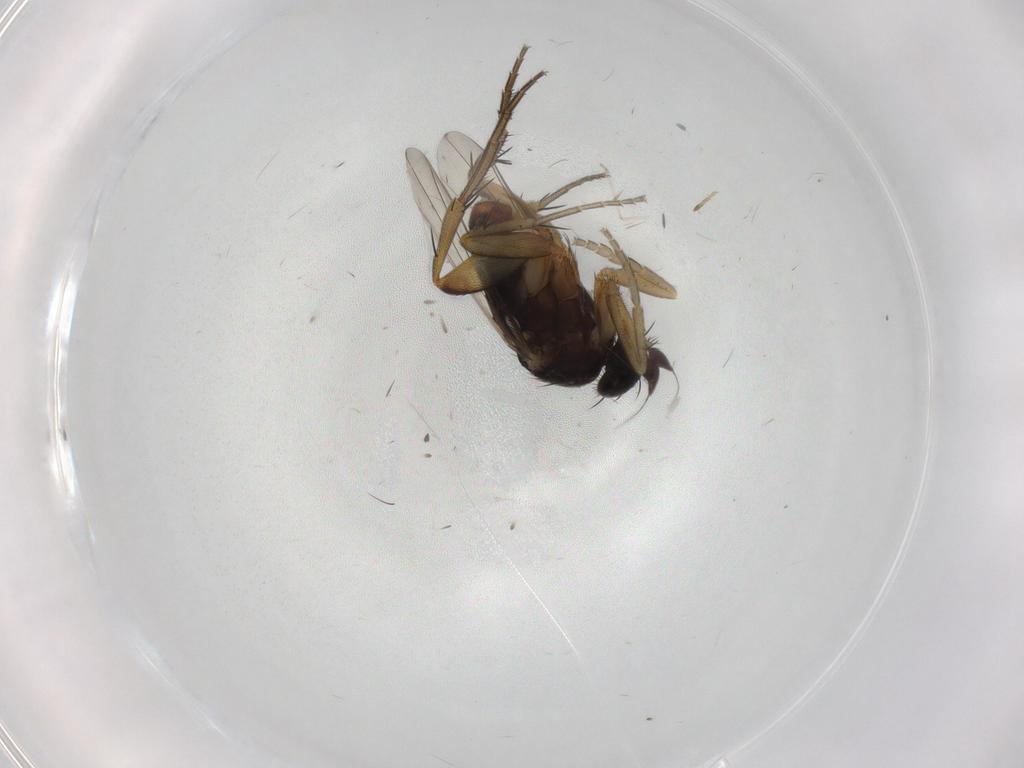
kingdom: Animalia
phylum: Arthropoda
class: Insecta
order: Diptera
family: Phoridae
